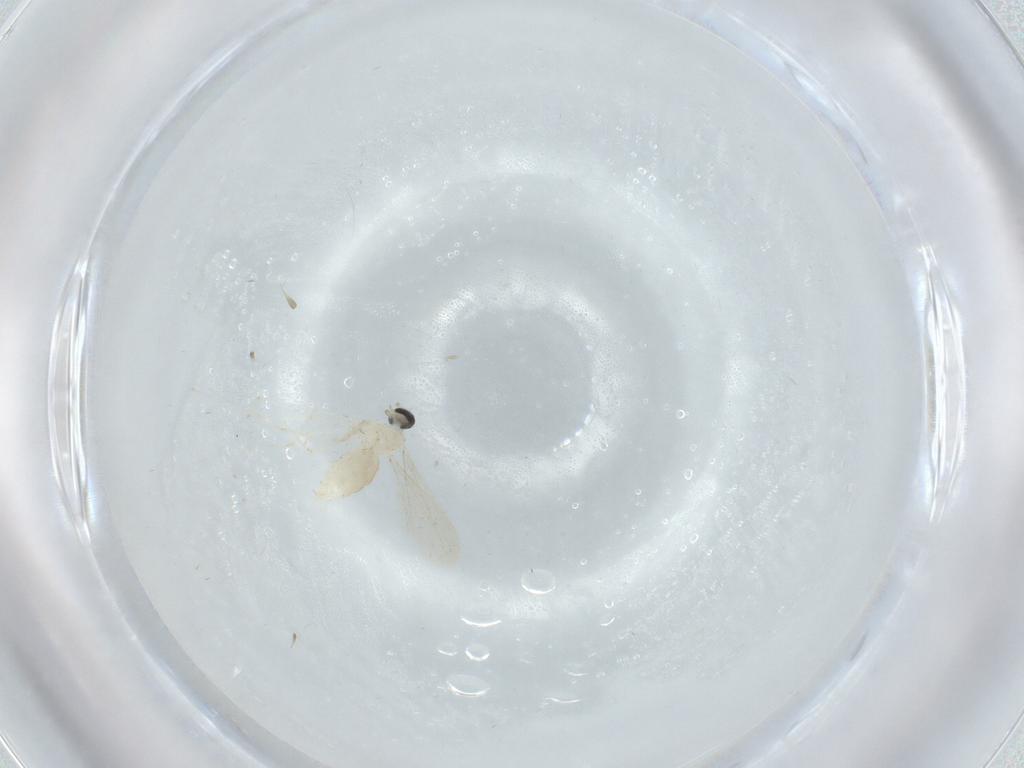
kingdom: Animalia
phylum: Arthropoda
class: Insecta
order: Diptera
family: Cecidomyiidae
